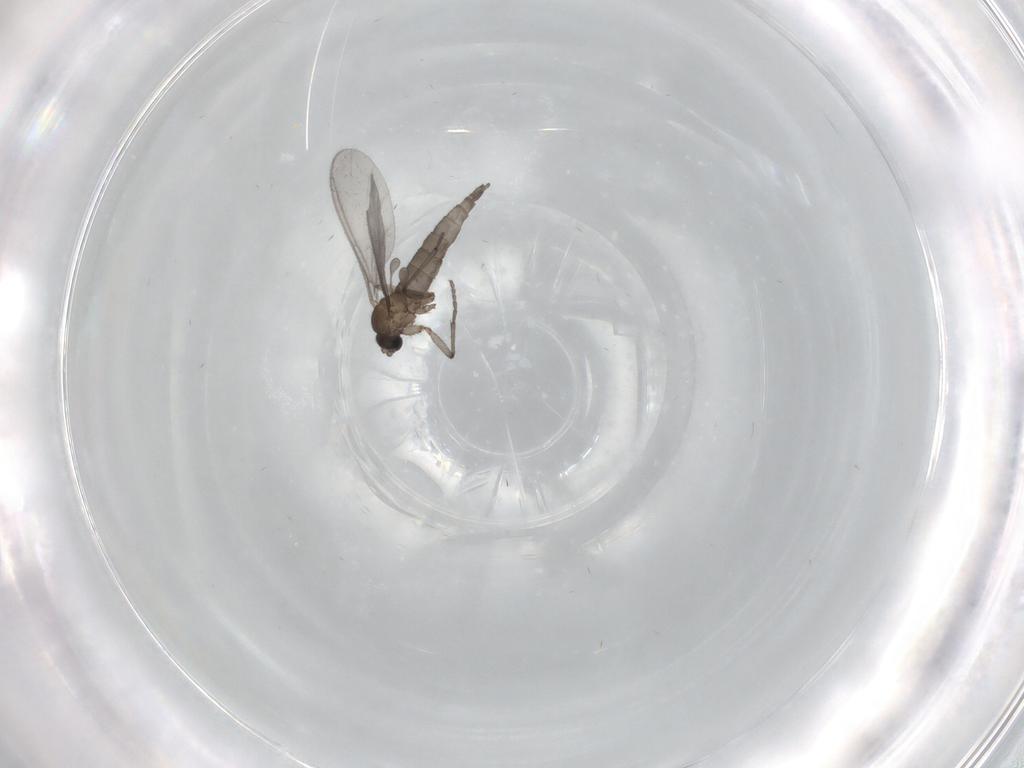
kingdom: Animalia
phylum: Arthropoda
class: Insecta
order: Diptera
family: Sciaridae
